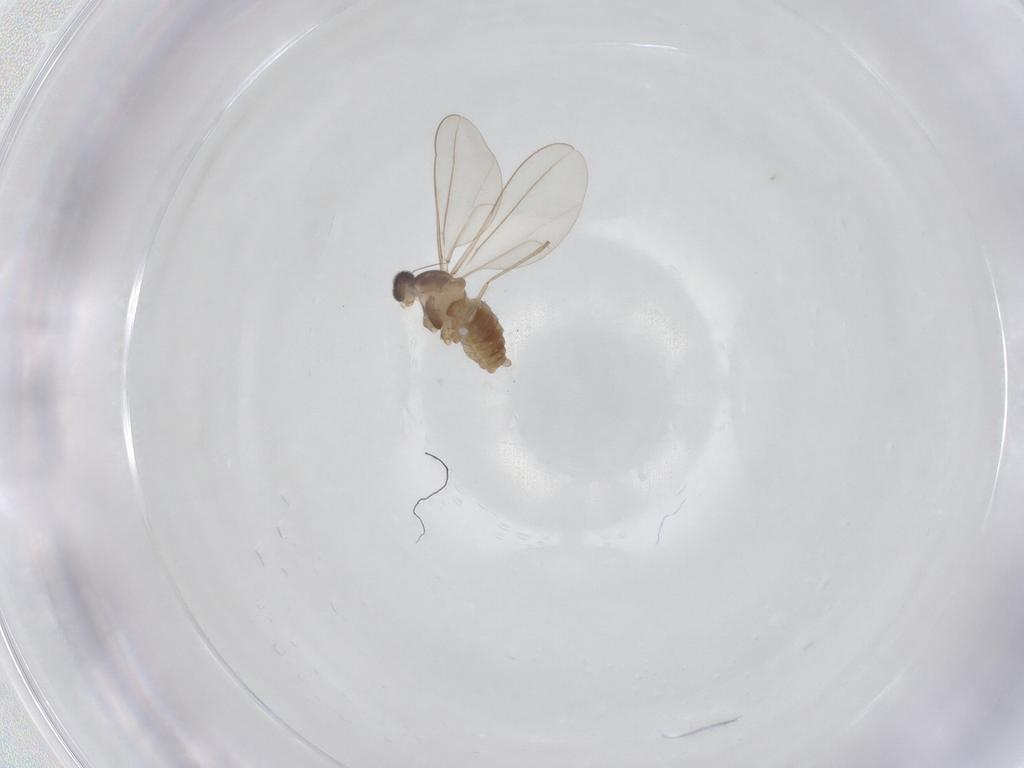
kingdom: Animalia
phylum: Arthropoda
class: Insecta
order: Diptera
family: Cecidomyiidae
